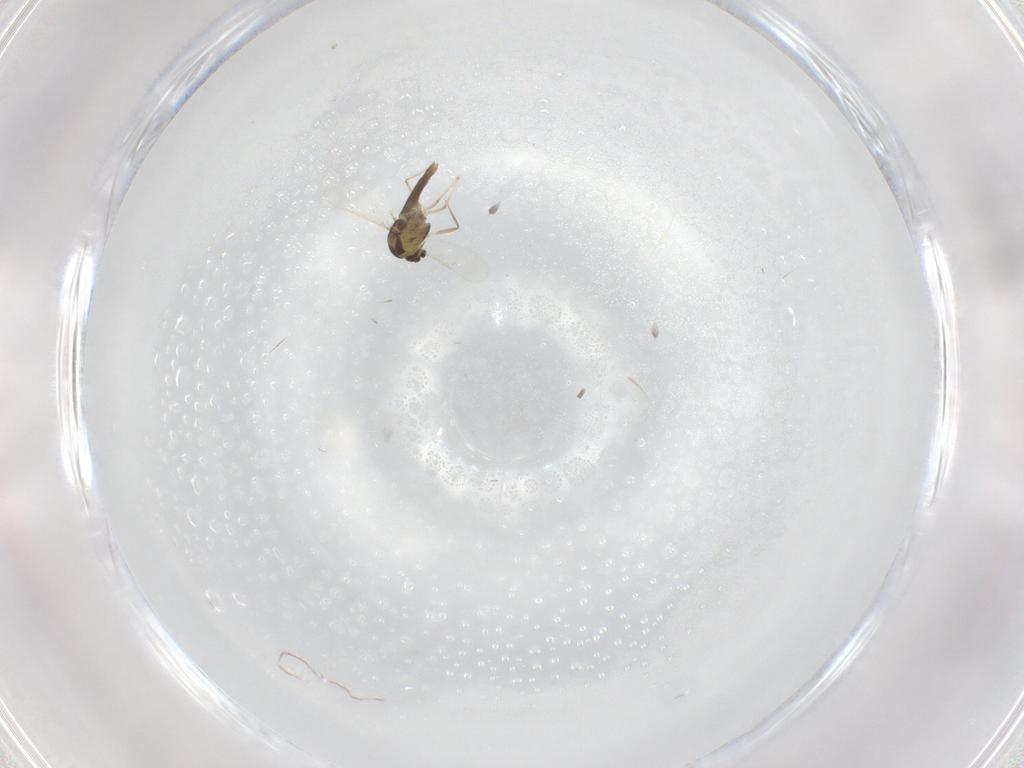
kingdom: Animalia
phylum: Arthropoda
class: Insecta
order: Diptera
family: Chironomidae
